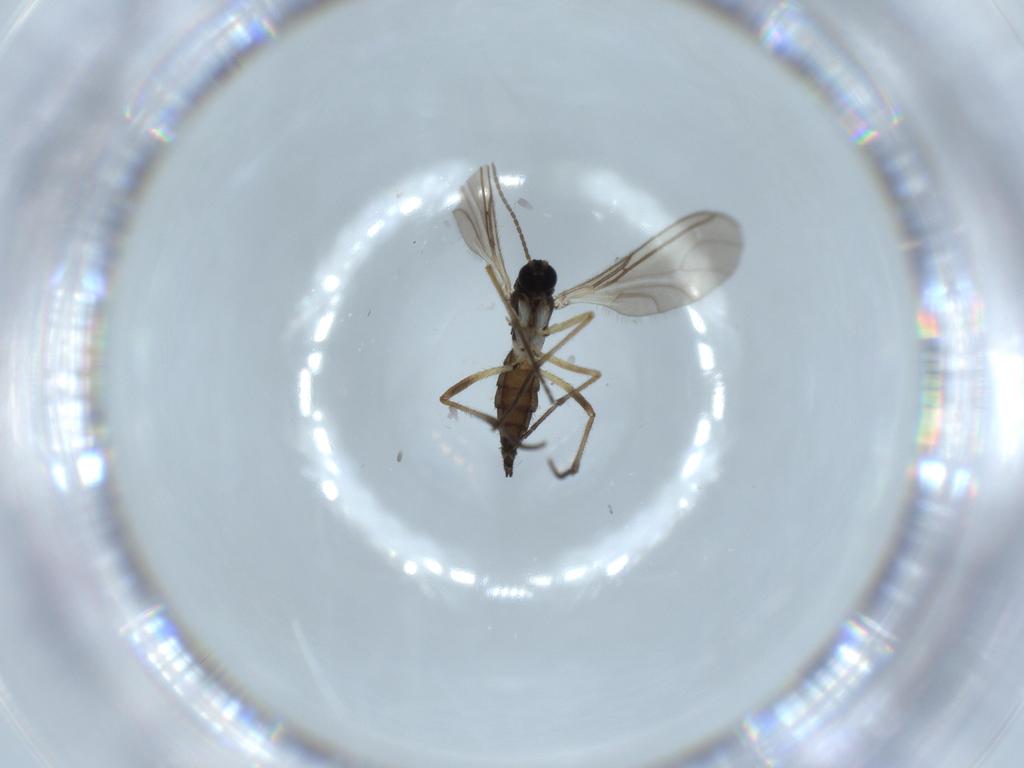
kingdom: Animalia
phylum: Arthropoda
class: Insecta
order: Diptera
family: Sciaridae
